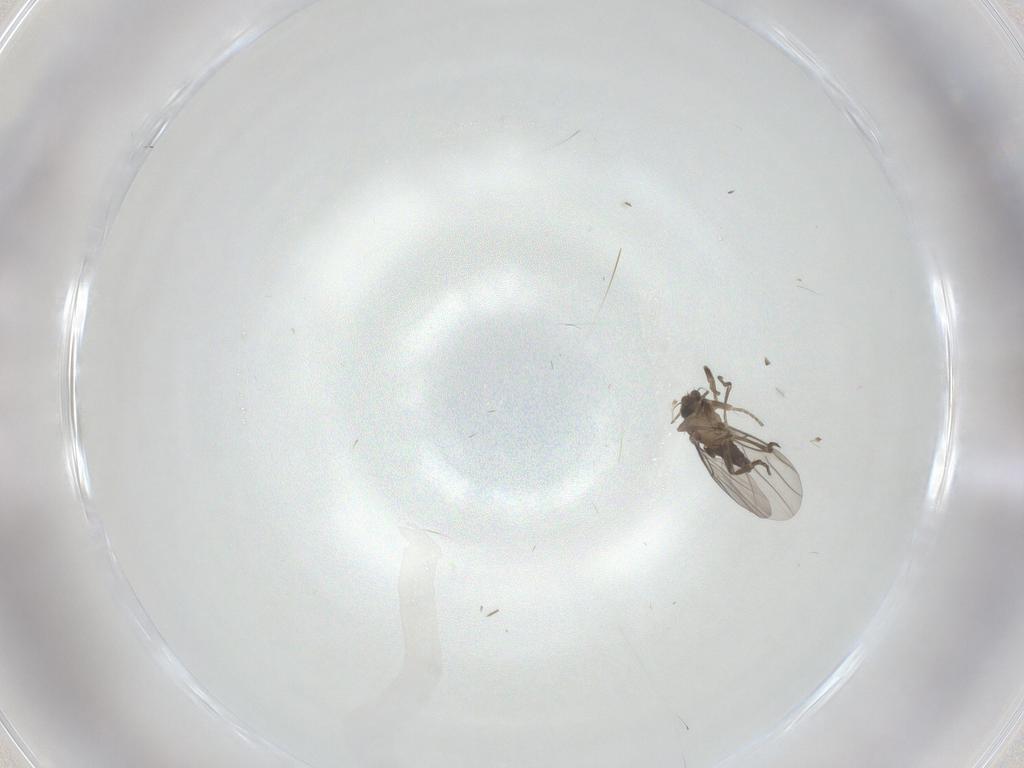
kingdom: Animalia
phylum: Arthropoda
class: Insecta
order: Diptera
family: Phoridae
